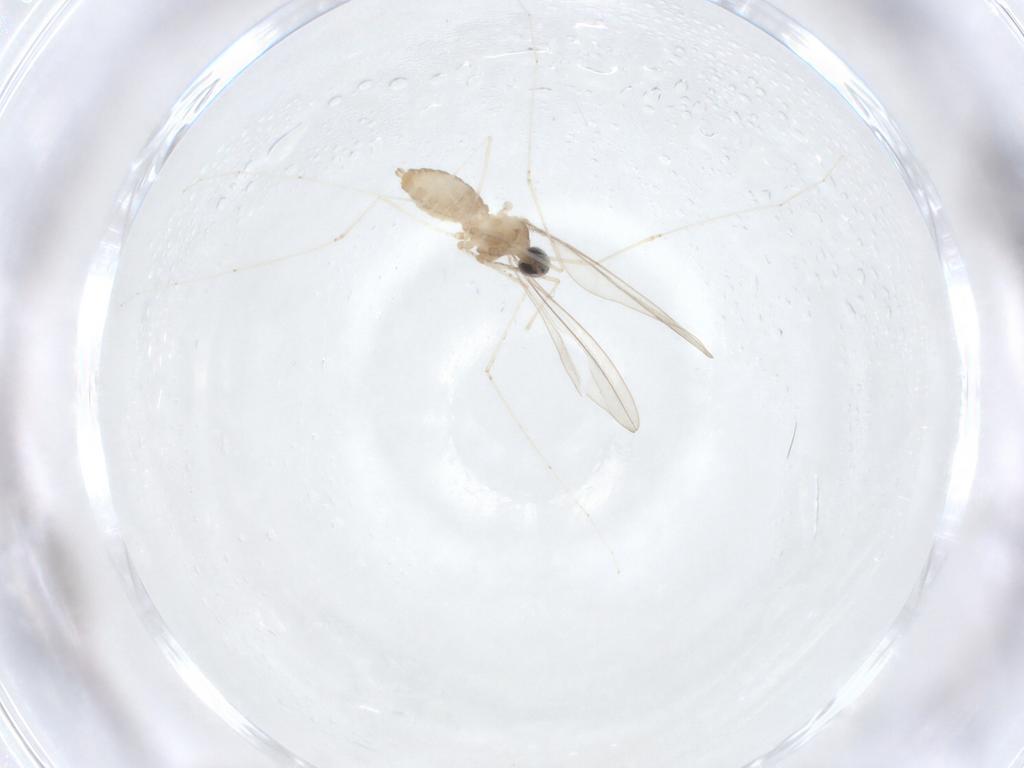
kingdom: Animalia
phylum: Arthropoda
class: Insecta
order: Diptera
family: Cecidomyiidae
